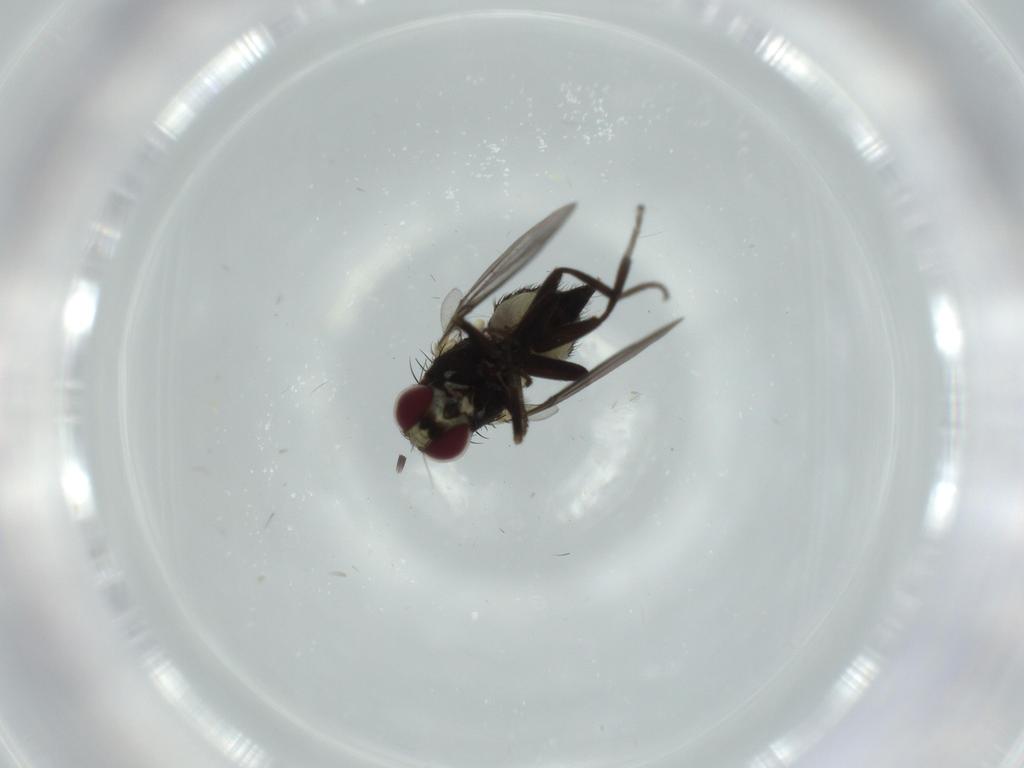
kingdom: Animalia
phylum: Arthropoda
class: Insecta
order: Diptera
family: Agromyzidae
